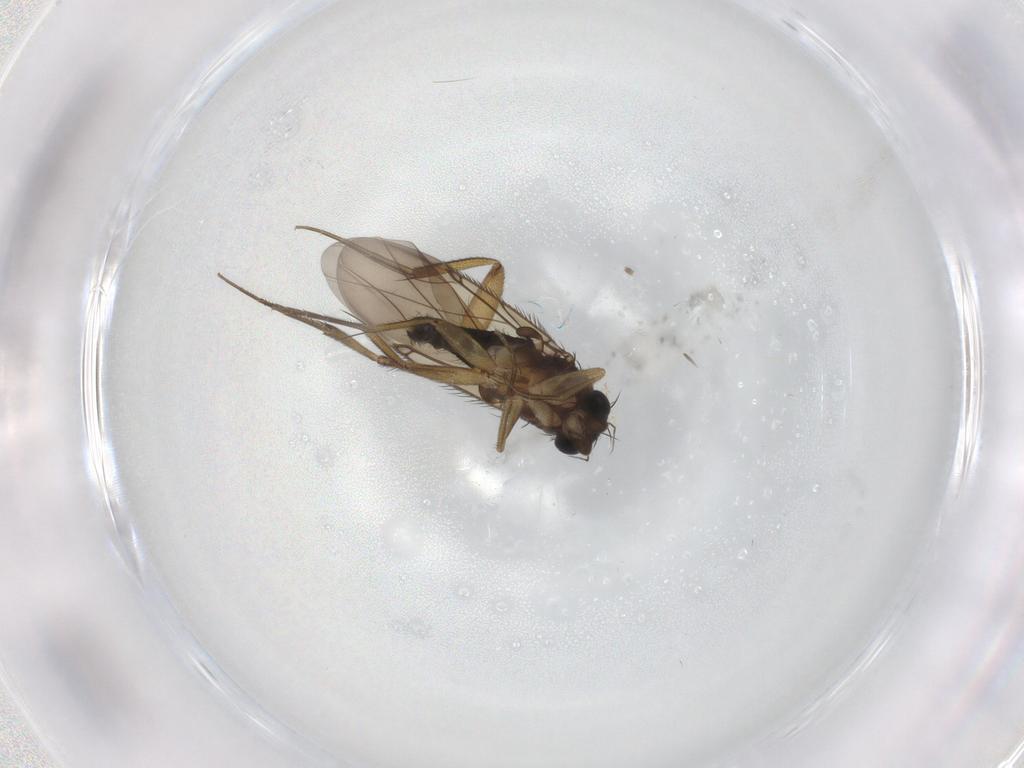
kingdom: Animalia
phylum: Arthropoda
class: Insecta
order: Diptera
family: Phoridae
